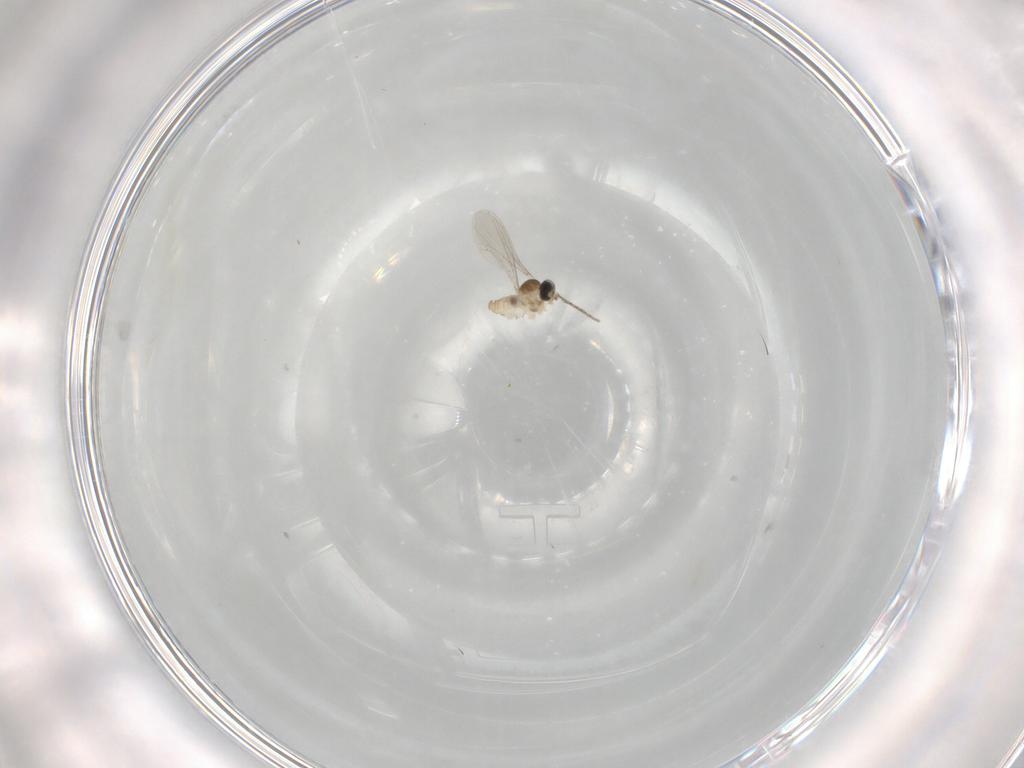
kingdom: Animalia
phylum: Arthropoda
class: Insecta
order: Diptera
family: Cecidomyiidae
